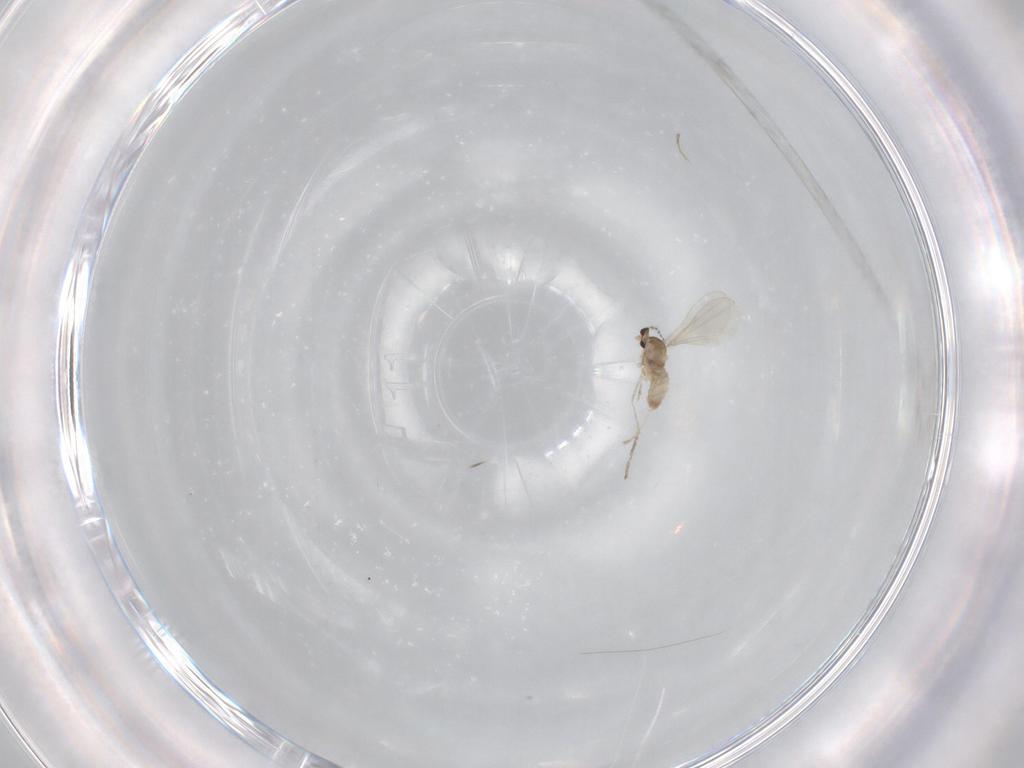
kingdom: Animalia
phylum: Arthropoda
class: Insecta
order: Diptera
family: Cecidomyiidae
